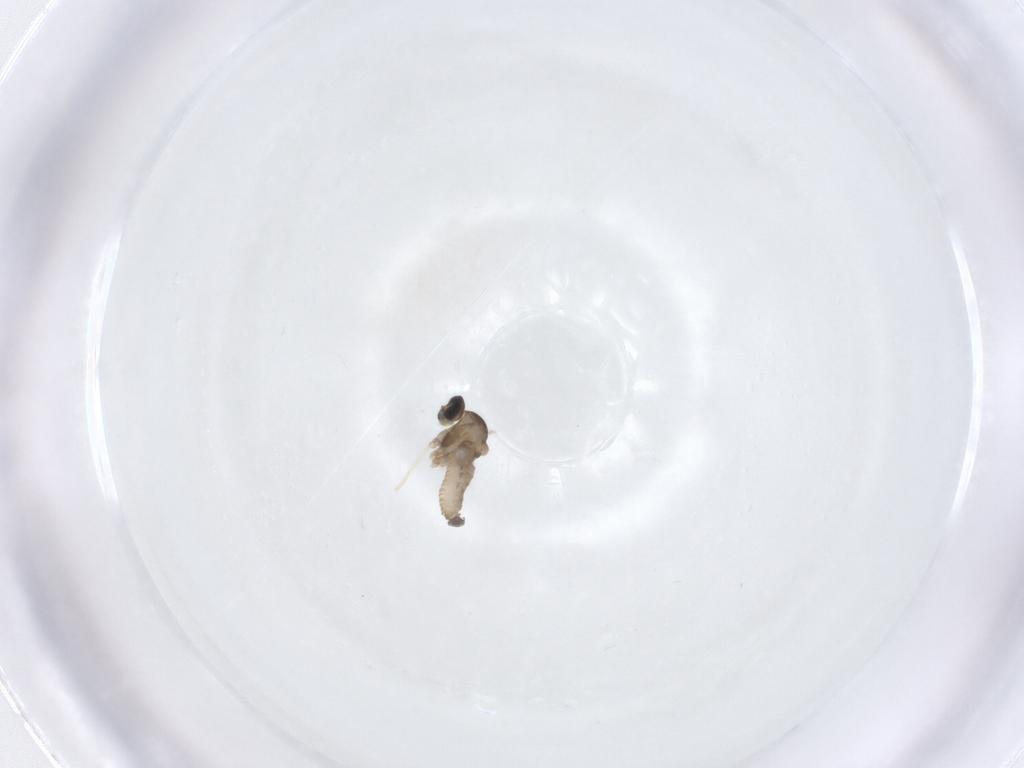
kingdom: Animalia
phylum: Arthropoda
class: Insecta
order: Diptera
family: Cecidomyiidae
